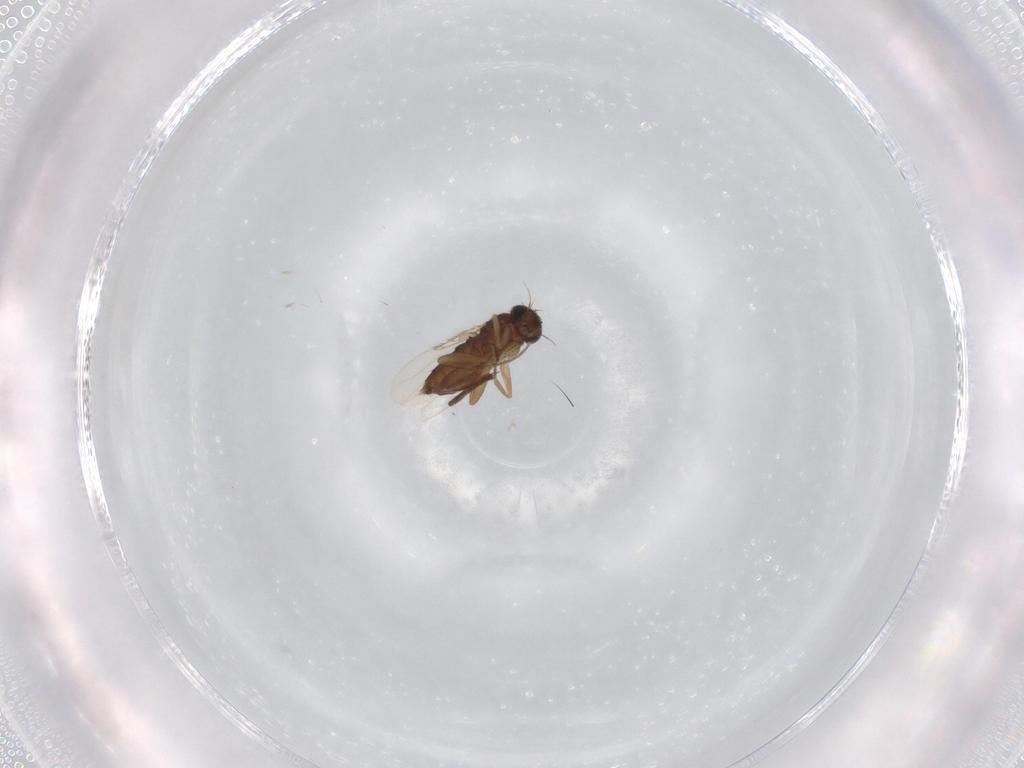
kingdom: Animalia
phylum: Arthropoda
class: Insecta
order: Diptera
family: Phoridae
